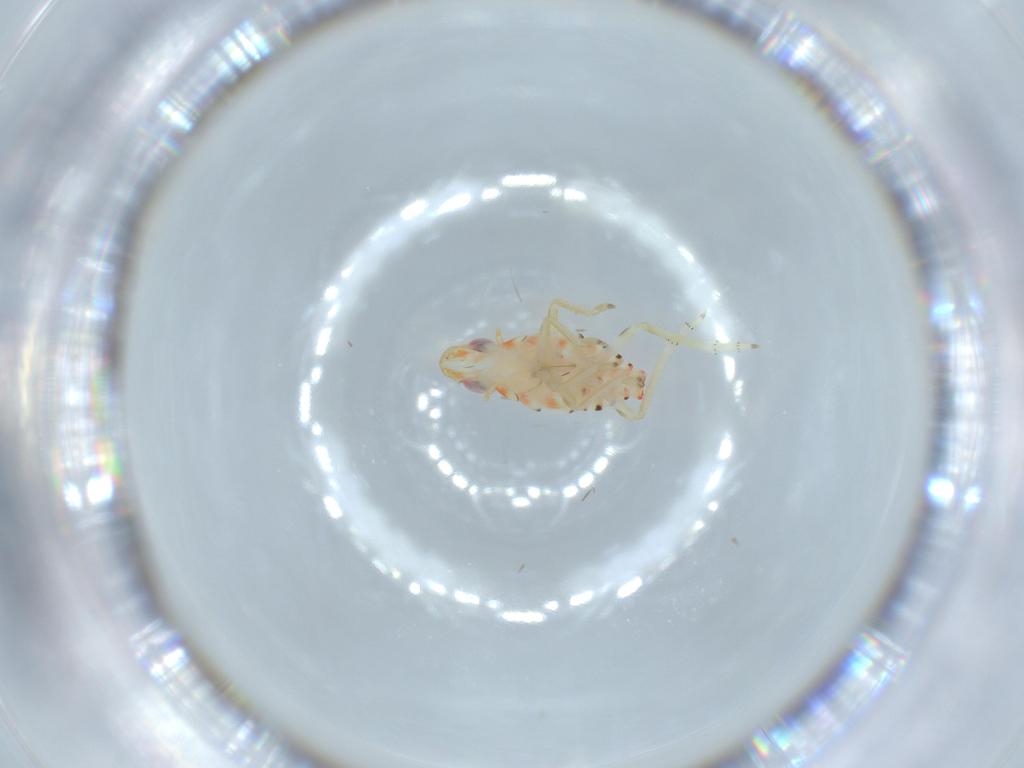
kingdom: Animalia
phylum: Arthropoda
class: Insecta
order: Hemiptera
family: Tropiduchidae
